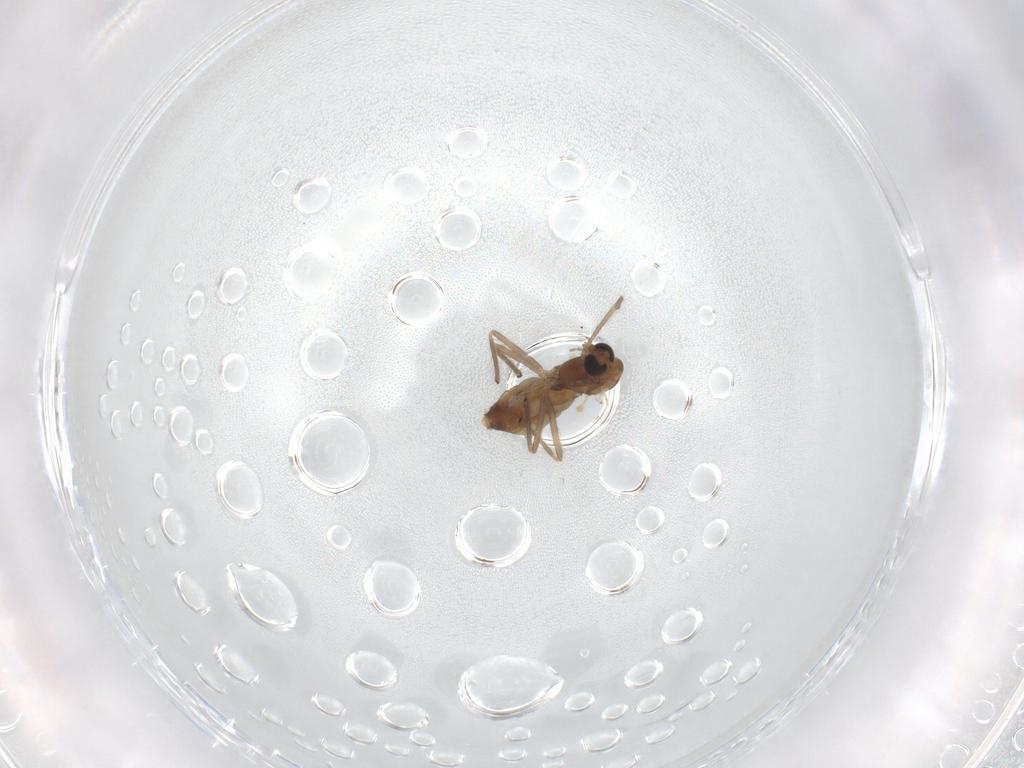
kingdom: Animalia
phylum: Arthropoda
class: Insecta
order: Diptera
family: Chironomidae
